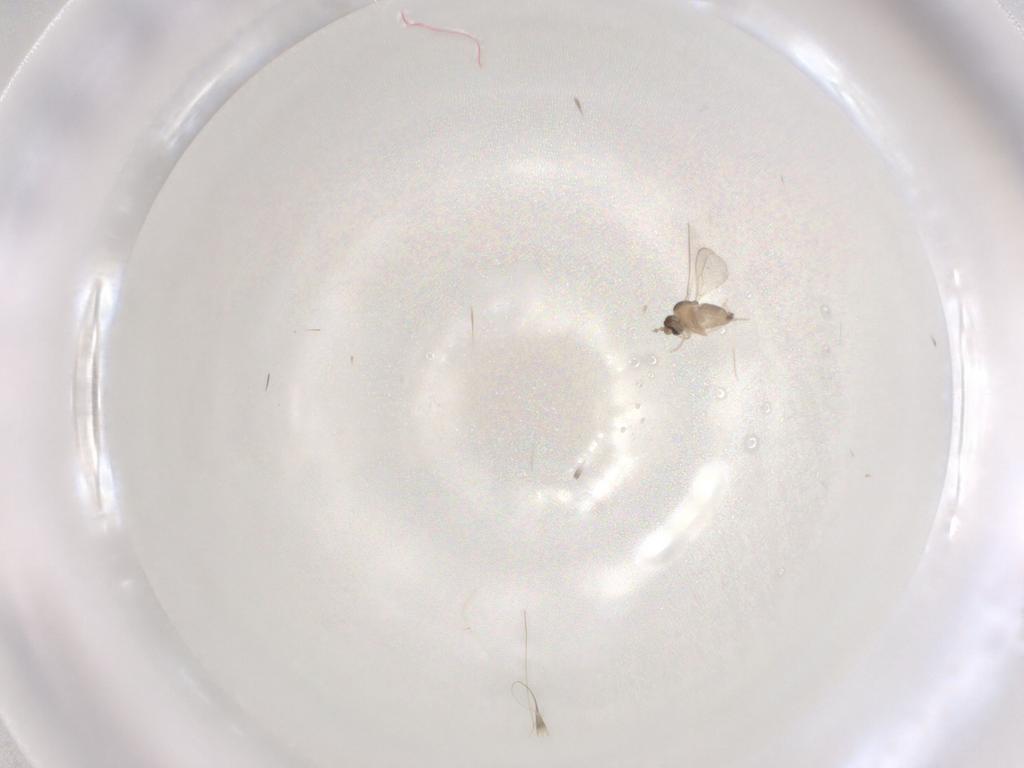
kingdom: Animalia
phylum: Arthropoda
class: Insecta
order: Diptera
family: Cecidomyiidae
